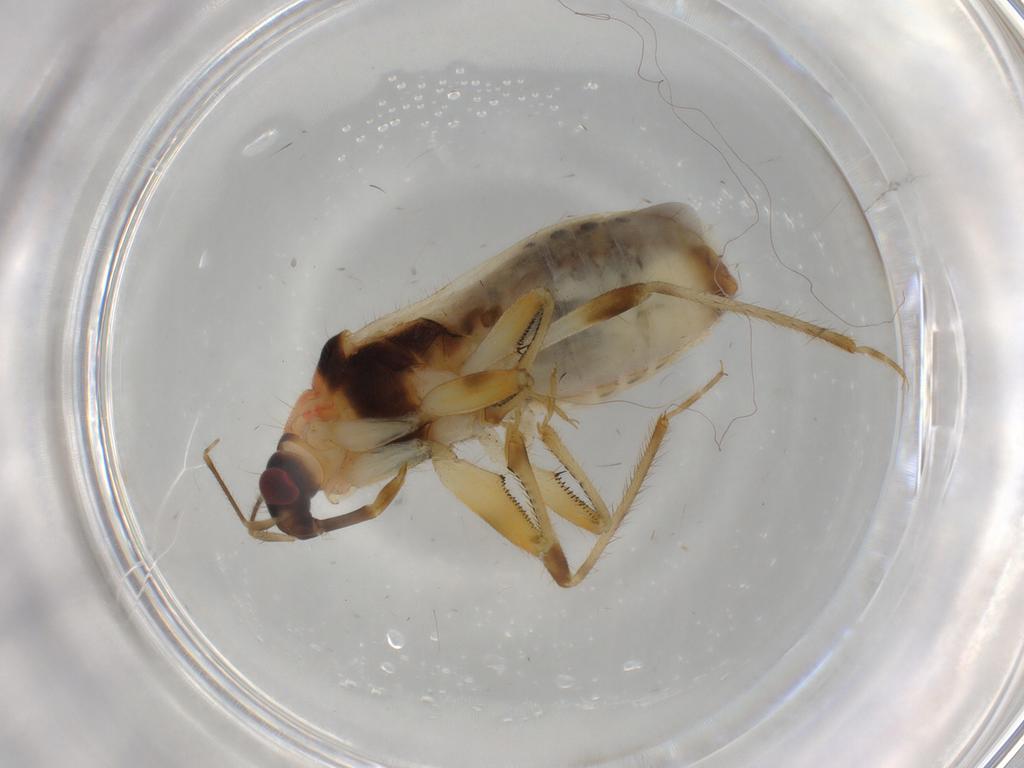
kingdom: Animalia
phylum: Arthropoda
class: Insecta
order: Hemiptera
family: Nabidae
